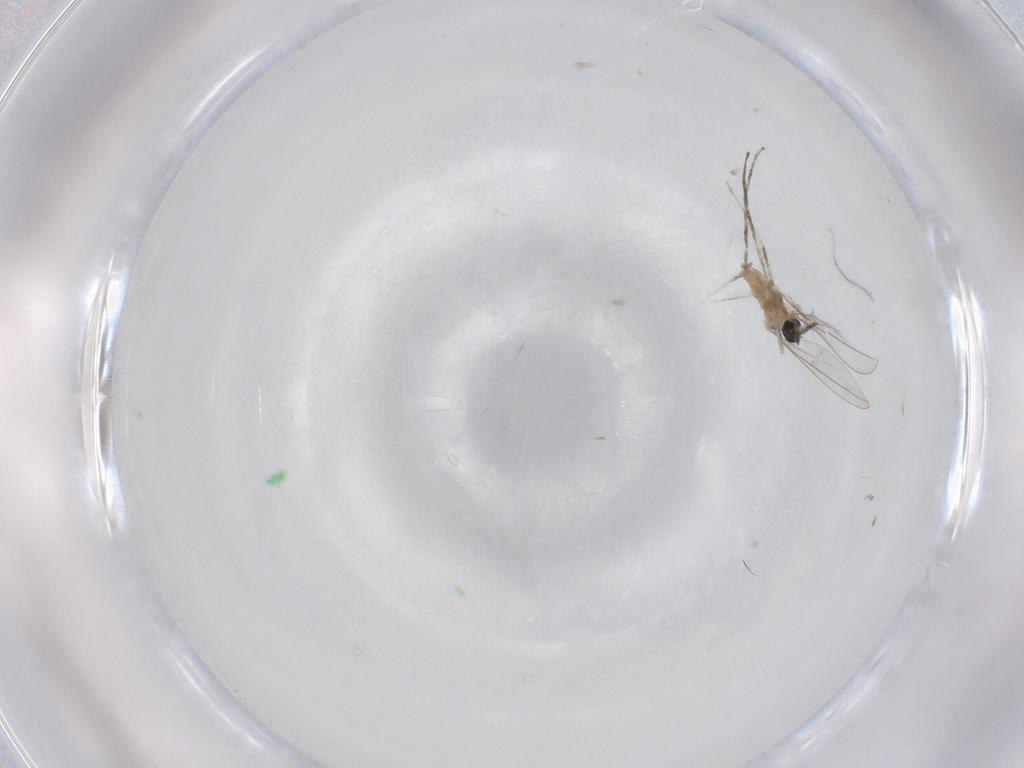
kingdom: Animalia
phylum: Arthropoda
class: Insecta
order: Diptera
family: Cecidomyiidae
